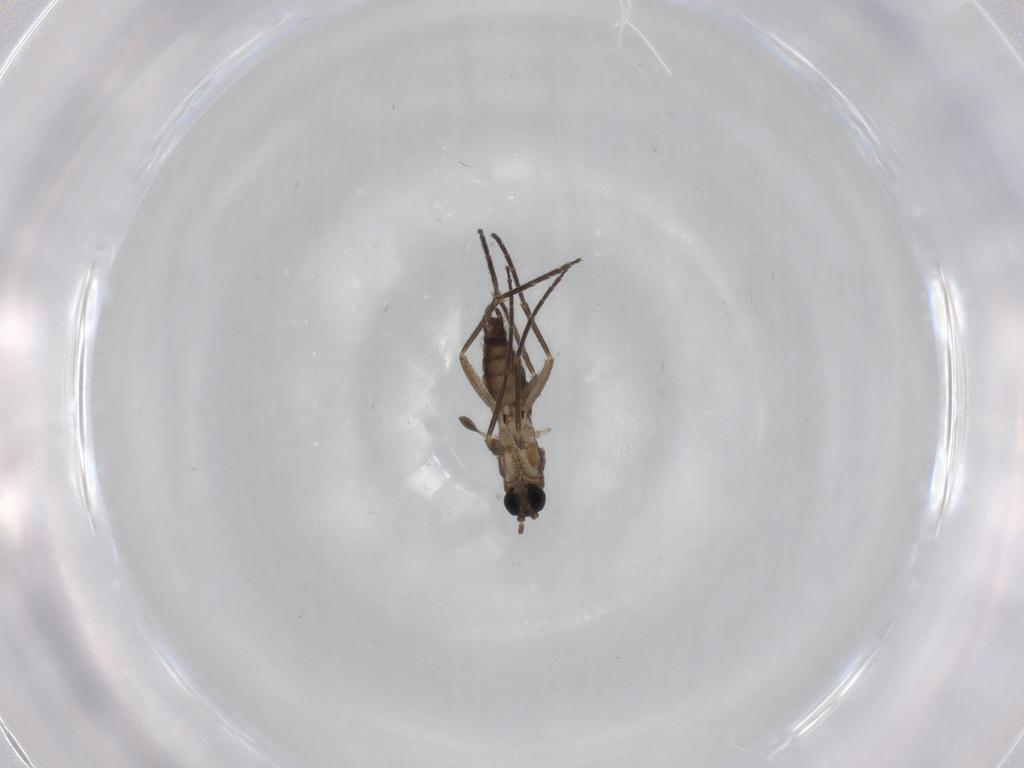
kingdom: Animalia
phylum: Arthropoda
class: Insecta
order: Diptera
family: Sciaridae
